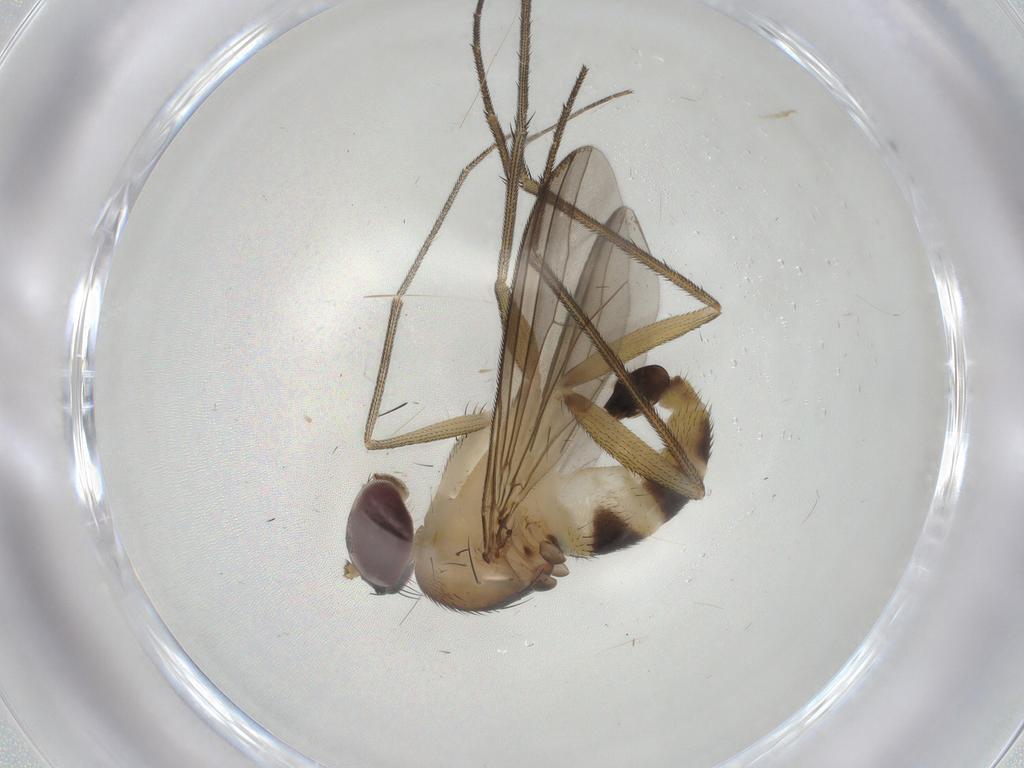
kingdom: Animalia
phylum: Arthropoda
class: Insecta
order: Diptera
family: Dolichopodidae
